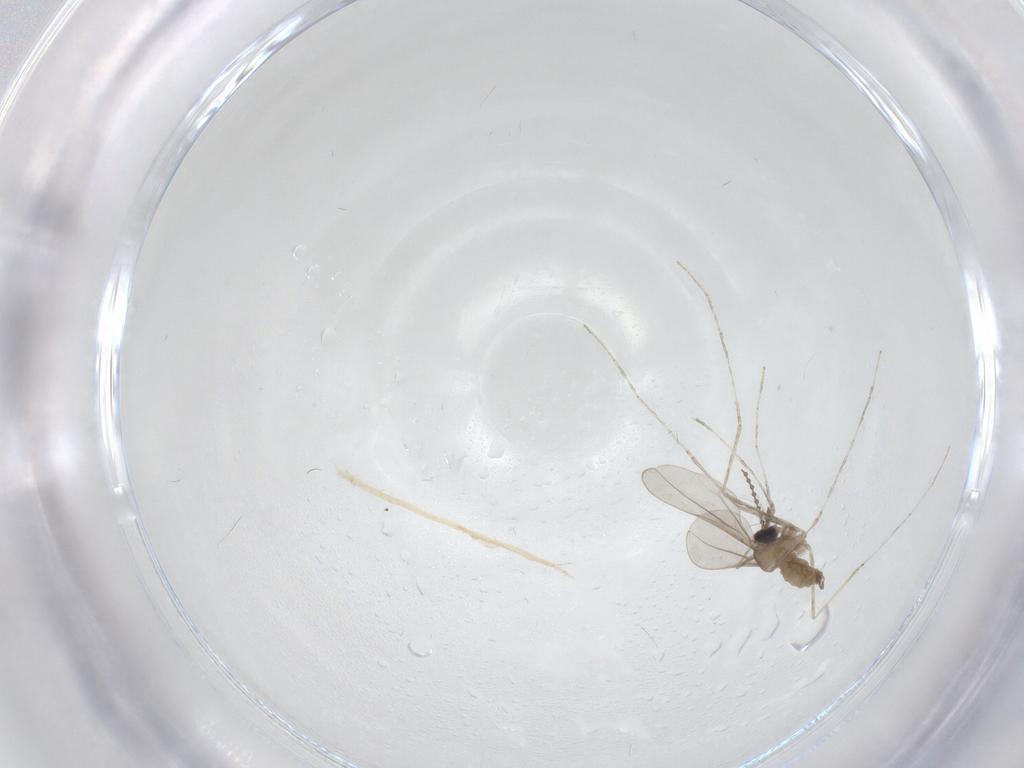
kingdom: Animalia
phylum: Arthropoda
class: Insecta
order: Diptera
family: Cecidomyiidae
